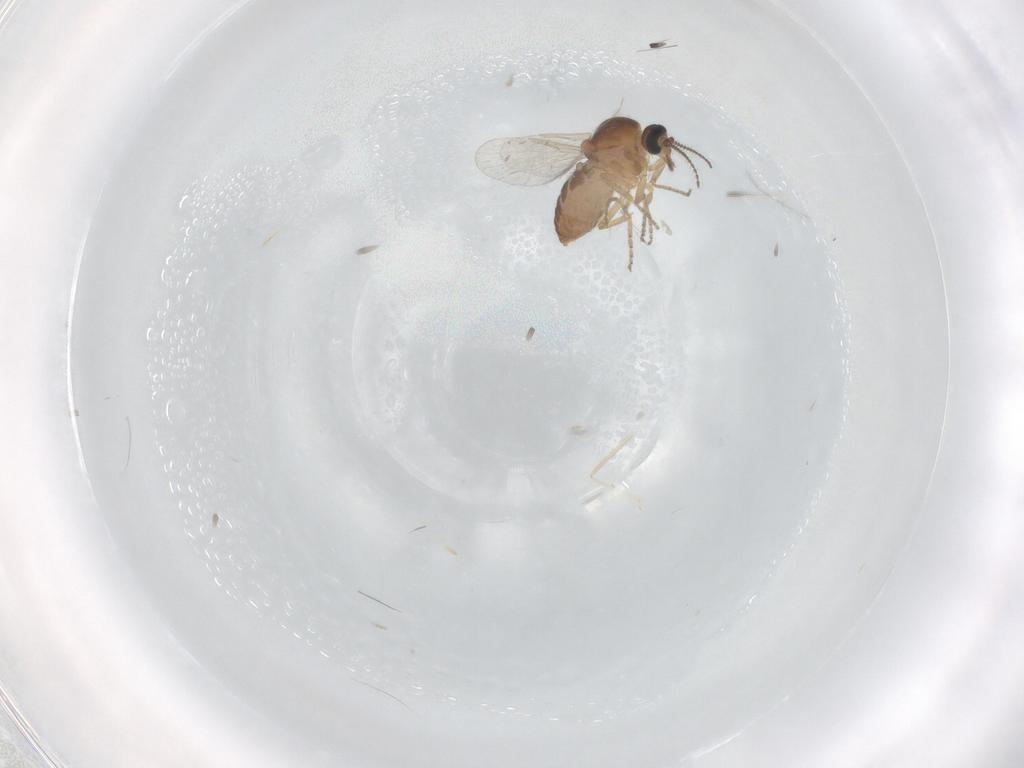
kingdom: Animalia
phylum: Arthropoda
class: Insecta
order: Diptera
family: Ceratopogonidae
